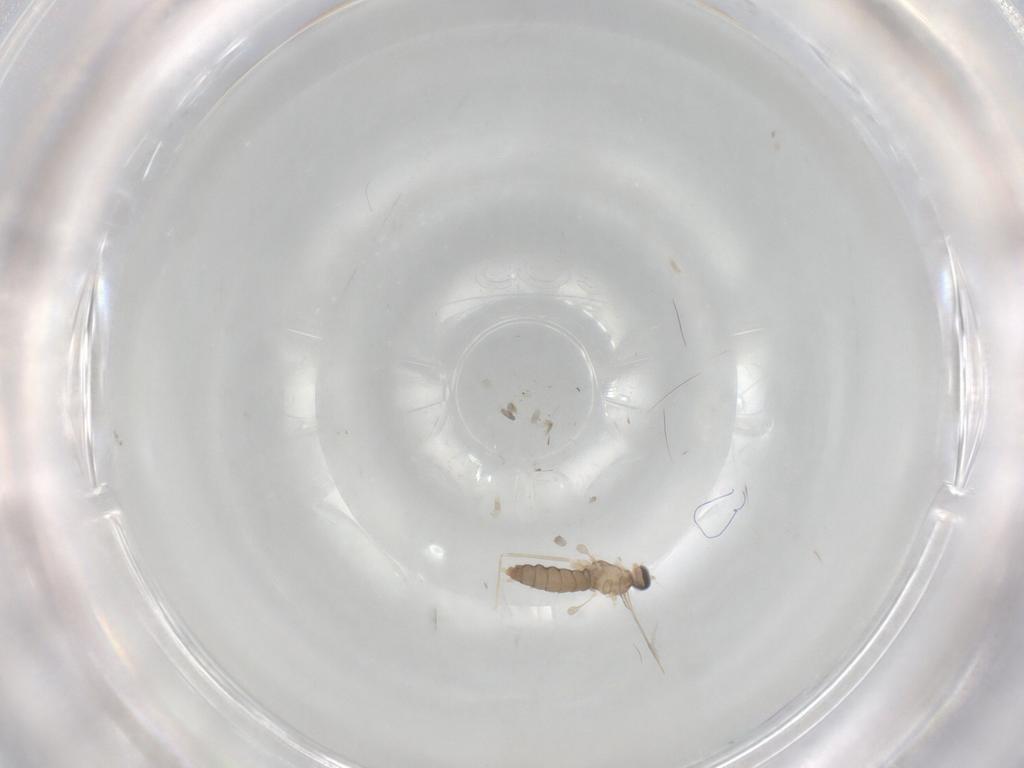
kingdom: Animalia
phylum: Arthropoda
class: Insecta
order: Diptera
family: Cecidomyiidae
